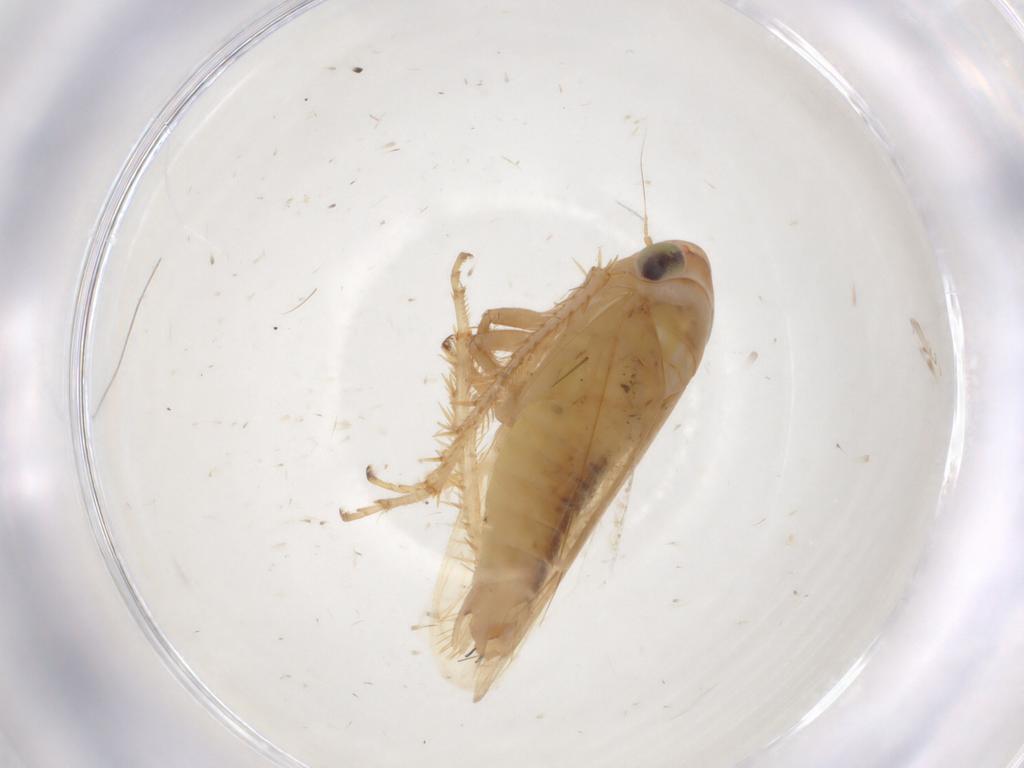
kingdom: Animalia
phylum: Arthropoda
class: Insecta
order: Hemiptera
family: Cicadellidae
